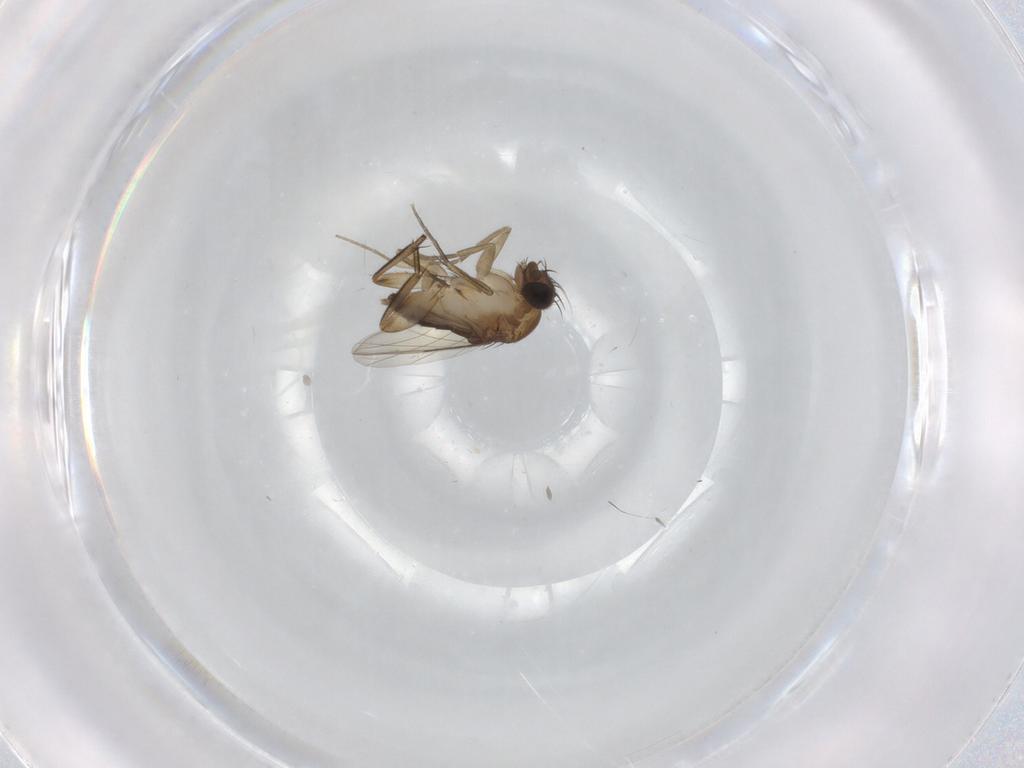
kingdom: Animalia
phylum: Arthropoda
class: Insecta
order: Diptera
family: Phoridae
